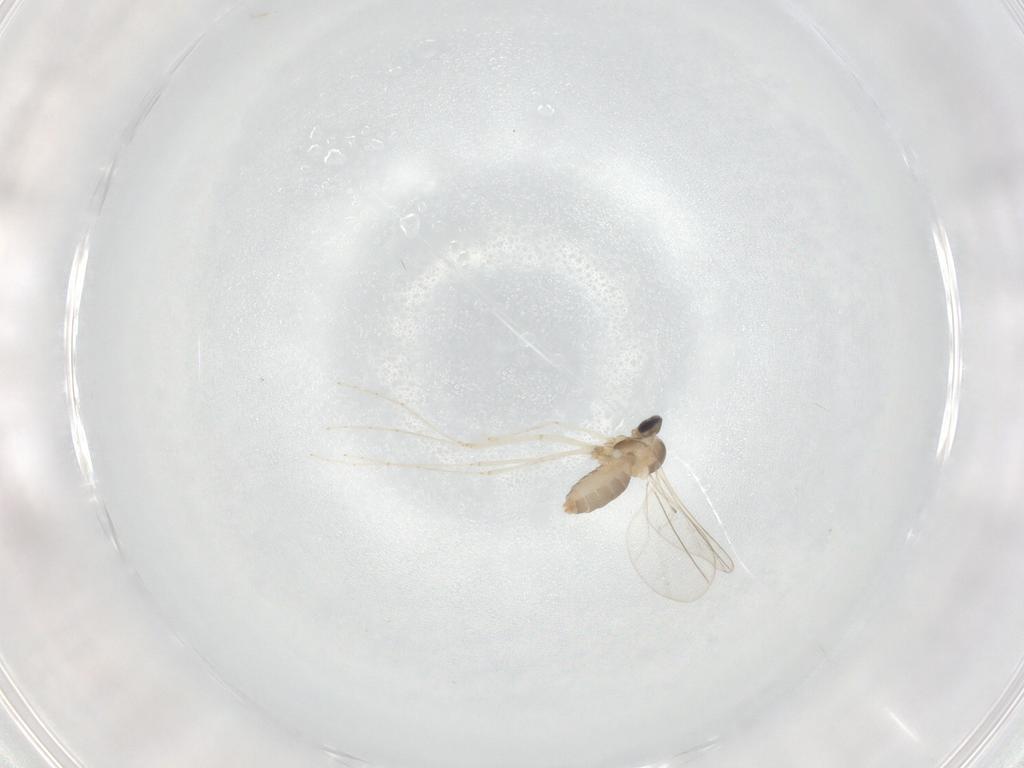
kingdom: Animalia
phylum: Arthropoda
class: Insecta
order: Diptera
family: Cecidomyiidae
